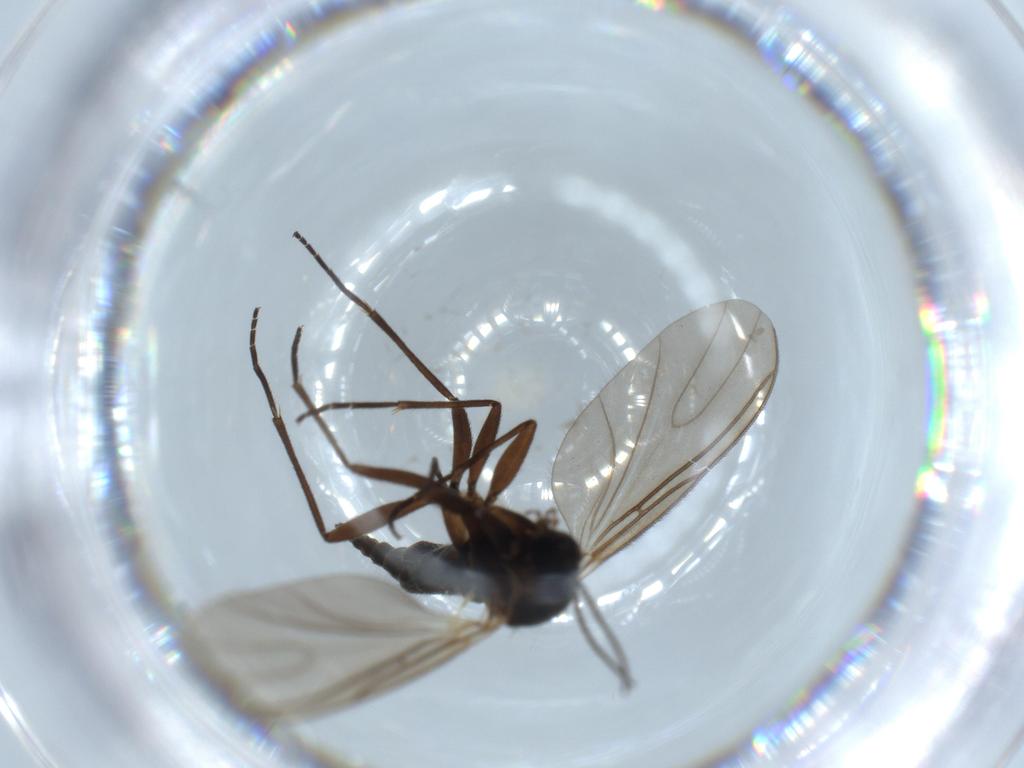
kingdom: Animalia
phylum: Arthropoda
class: Insecta
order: Diptera
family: Sciaridae
